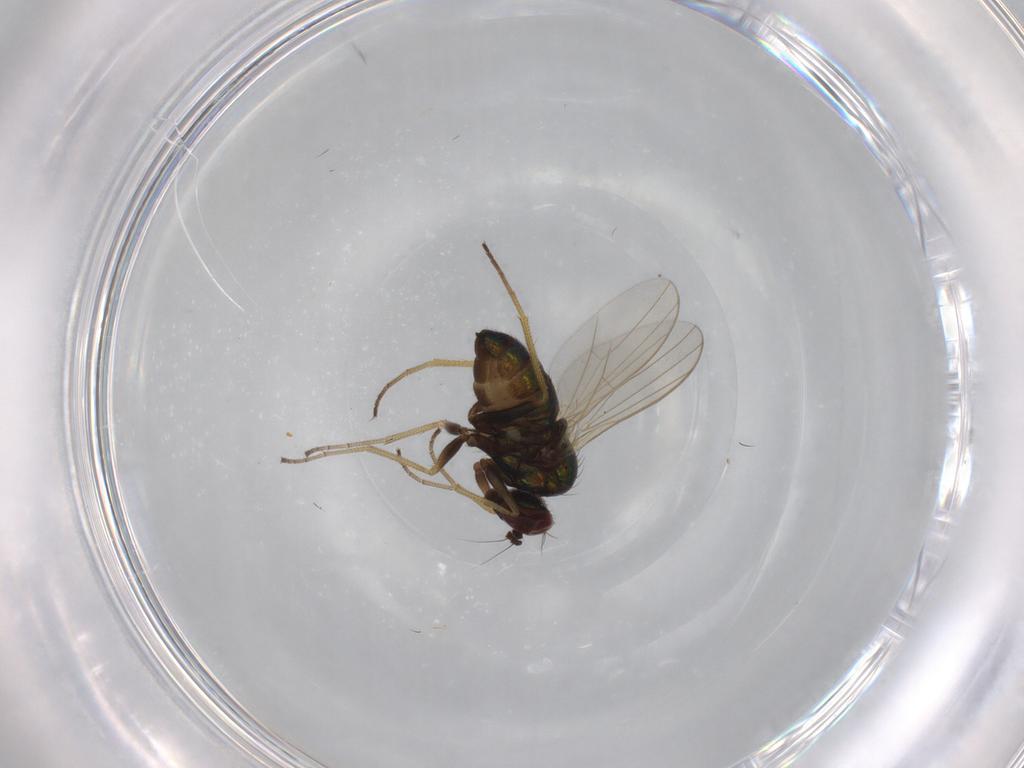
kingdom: Animalia
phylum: Arthropoda
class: Insecta
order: Diptera
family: Dolichopodidae
